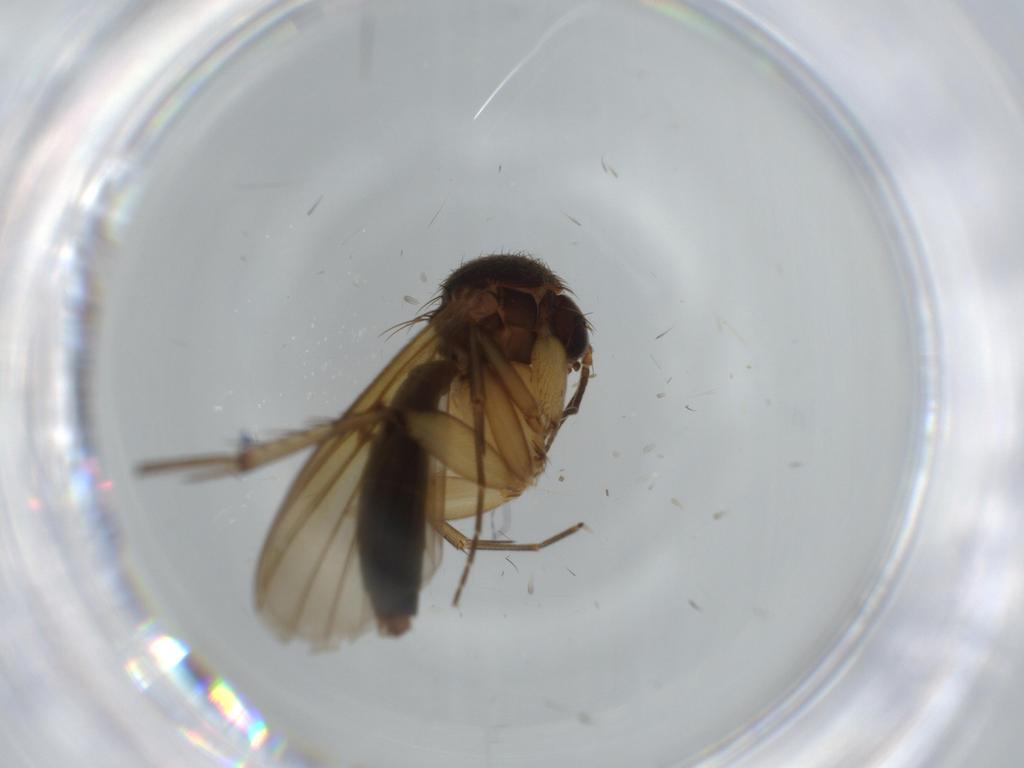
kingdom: Animalia
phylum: Arthropoda
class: Insecta
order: Diptera
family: Mycetophilidae
